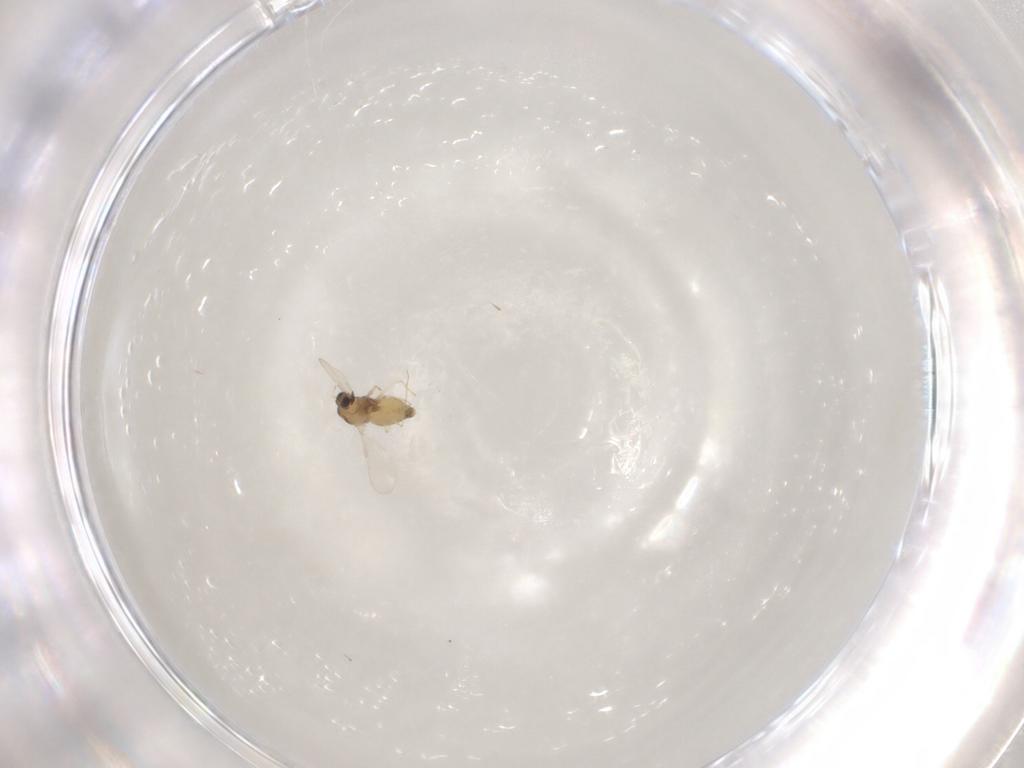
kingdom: Animalia
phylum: Arthropoda
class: Insecta
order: Diptera
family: Chironomidae
